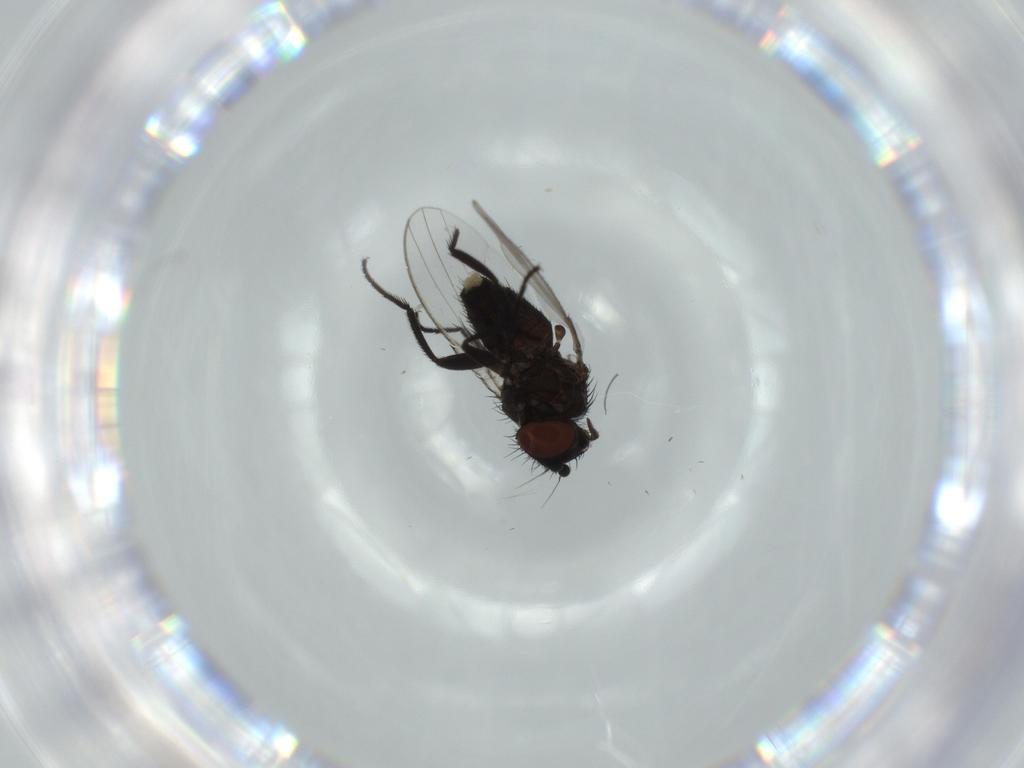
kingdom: Animalia
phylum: Arthropoda
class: Insecta
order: Diptera
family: Milichiidae
